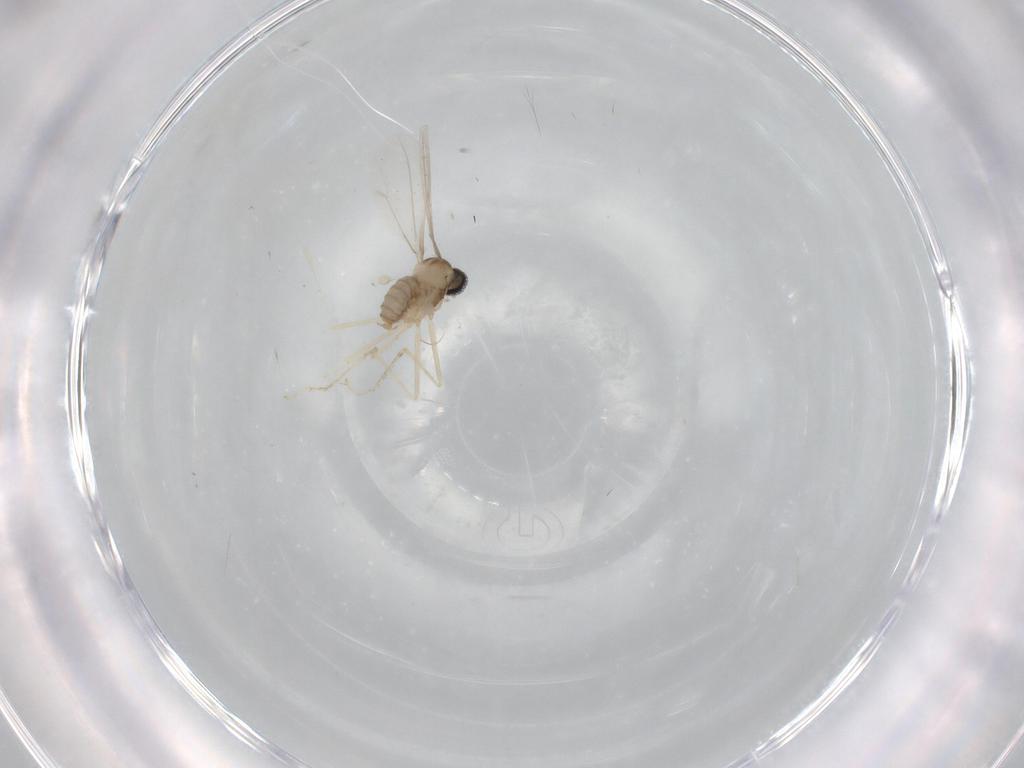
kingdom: Animalia
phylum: Arthropoda
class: Insecta
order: Diptera
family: Cecidomyiidae
